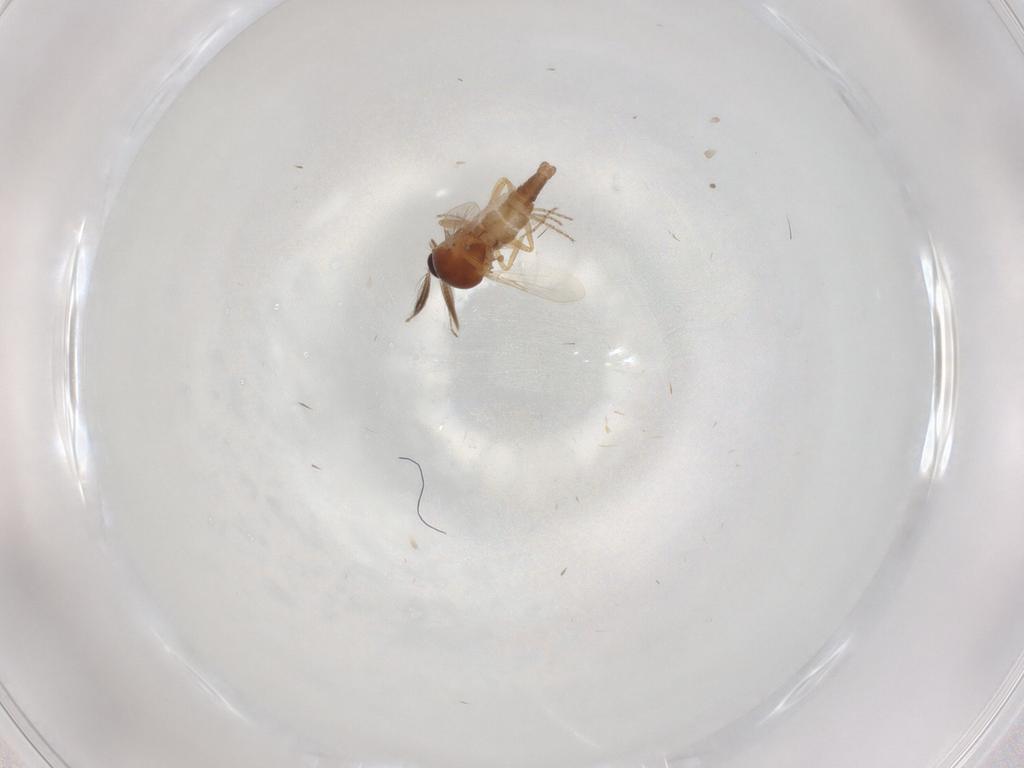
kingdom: Animalia
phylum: Arthropoda
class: Insecta
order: Diptera
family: Ceratopogonidae
